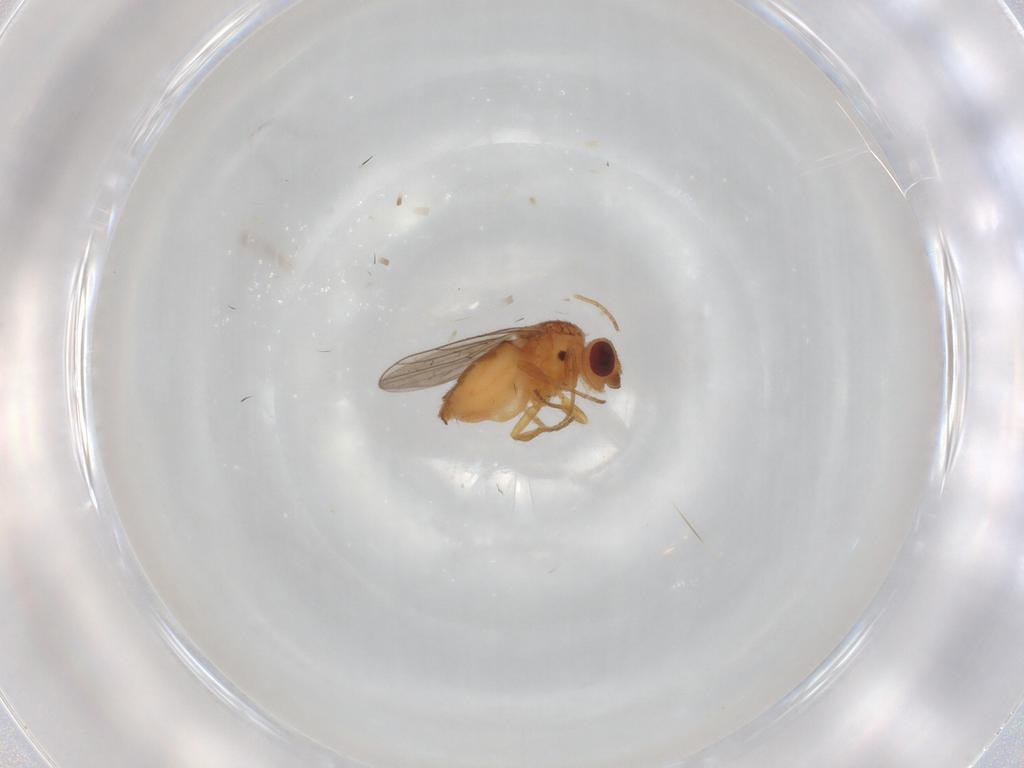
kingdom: Animalia
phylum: Arthropoda
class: Insecta
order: Diptera
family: Chloropidae
